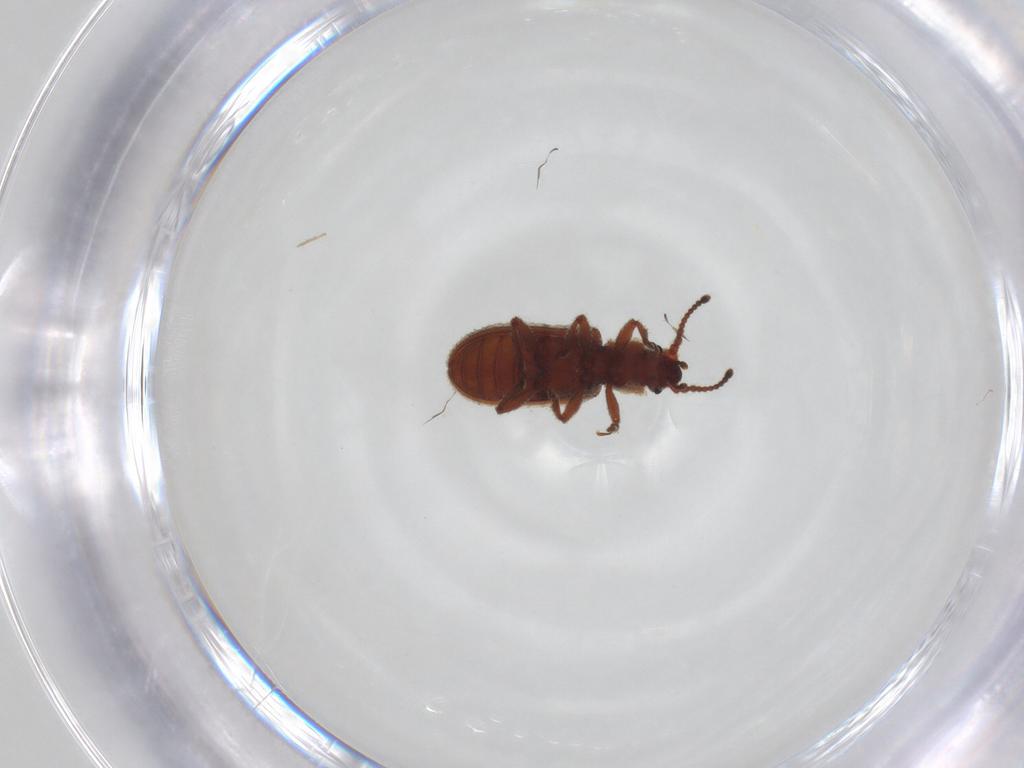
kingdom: Animalia
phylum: Arthropoda
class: Insecta
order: Coleoptera
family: Zopheridae
